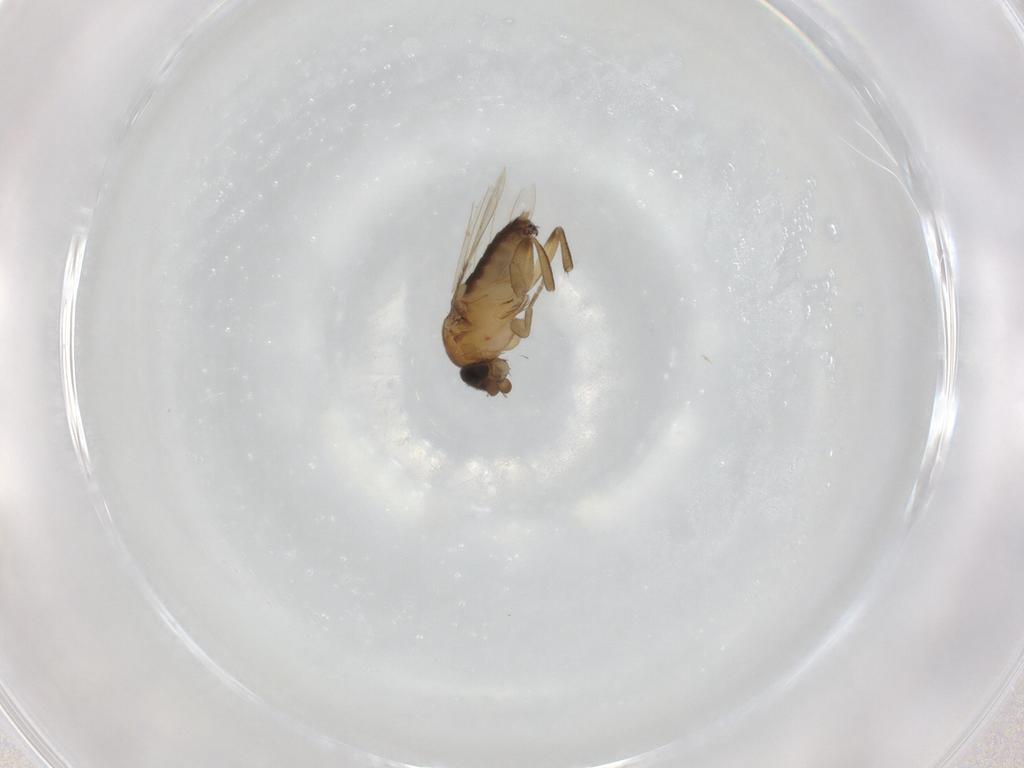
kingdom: Animalia
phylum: Arthropoda
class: Insecta
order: Diptera
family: Phoridae
